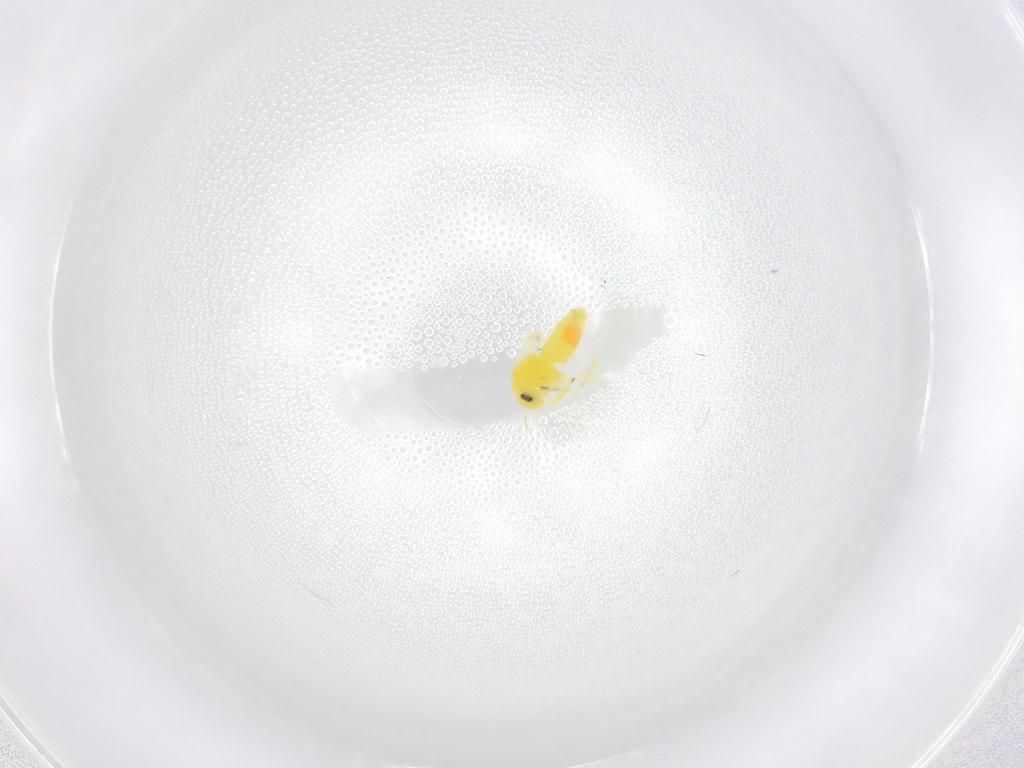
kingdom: Animalia
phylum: Arthropoda
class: Insecta
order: Hemiptera
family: Aleyrodidae
